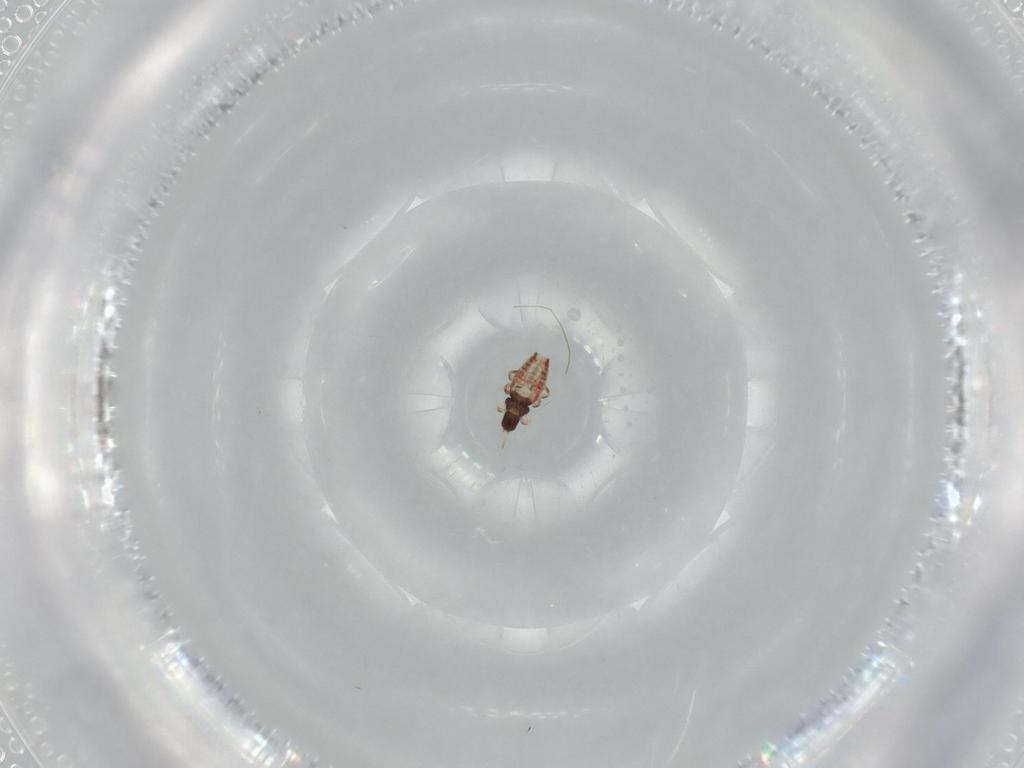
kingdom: Animalia
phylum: Arthropoda
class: Insecta
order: Thysanoptera
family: Phlaeothripidae
